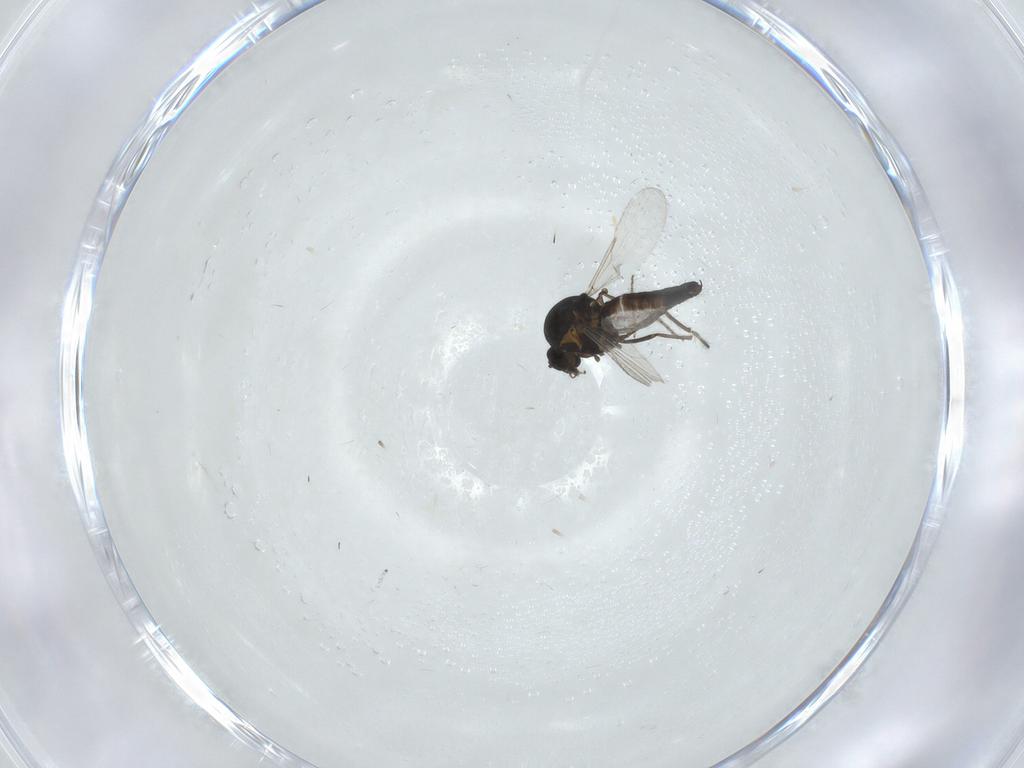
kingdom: Animalia
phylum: Arthropoda
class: Insecta
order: Diptera
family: Ceratopogonidae
